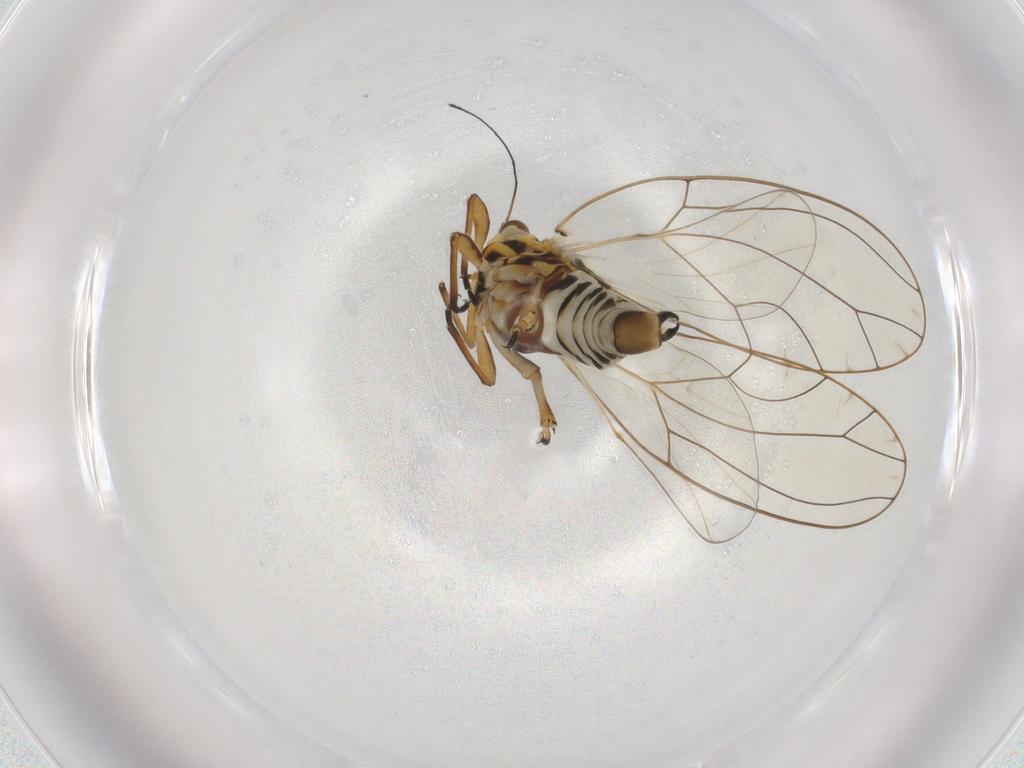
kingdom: Animalia
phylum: Arthropoda
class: Insecta
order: Hemiptera
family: Triozidae
